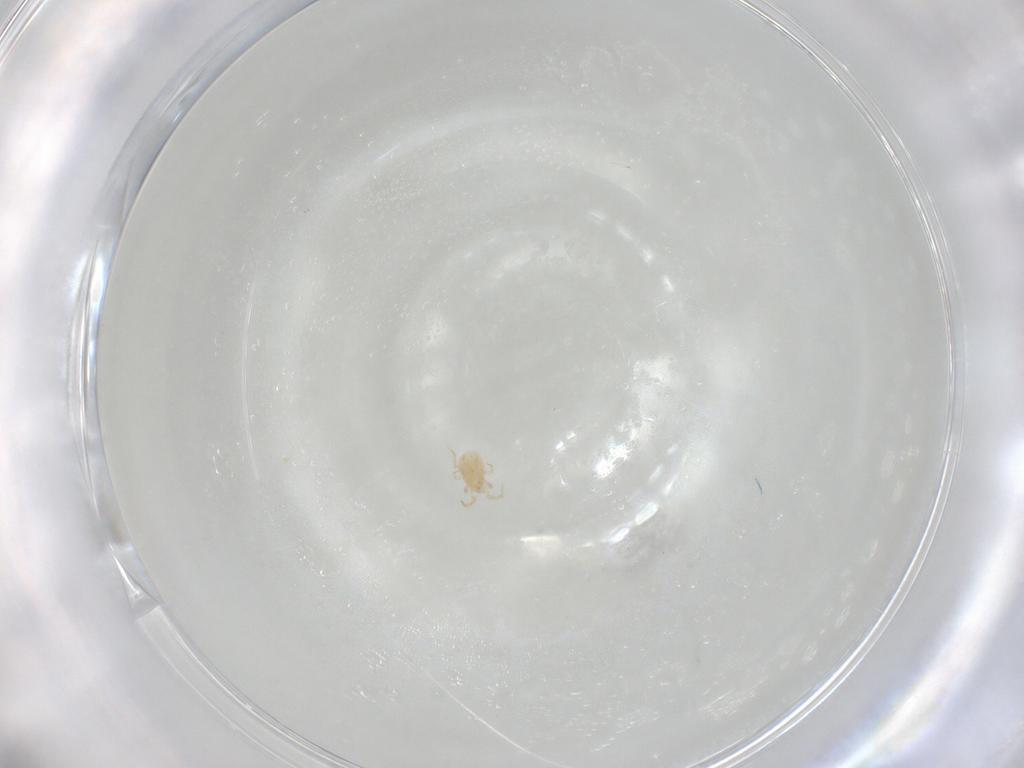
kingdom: Animalia
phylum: Arthropoda
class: Arachnida
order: Mesostigmata
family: Phytoseiidae
